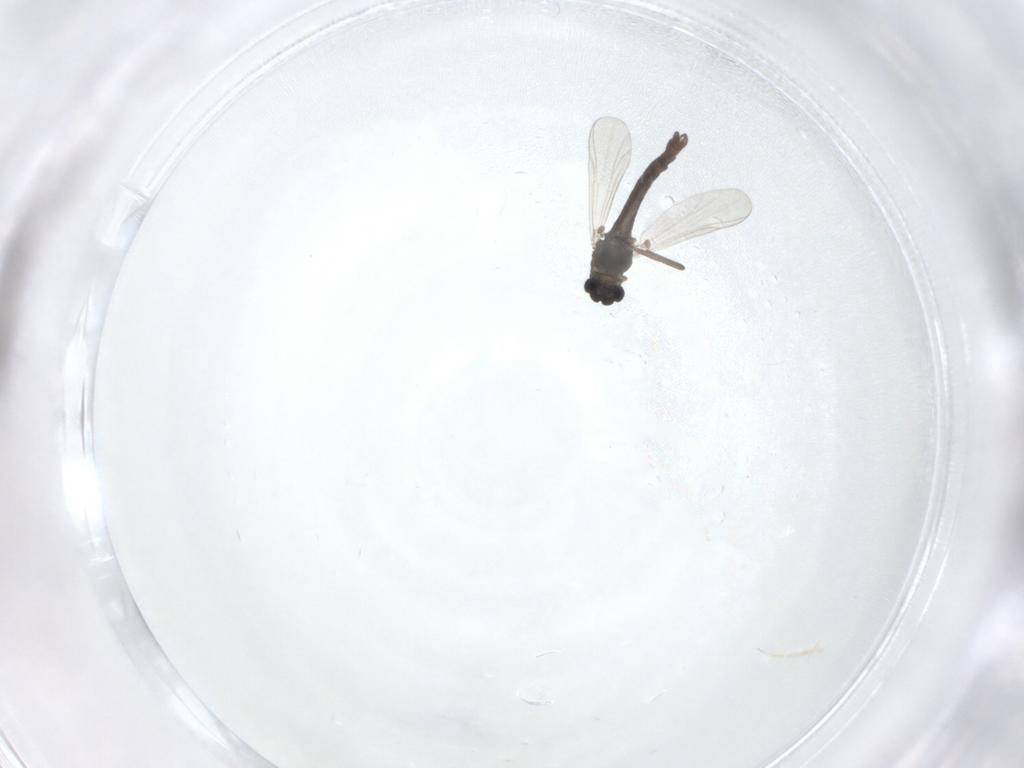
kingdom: Animalia
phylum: Arthropoda
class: Insecta
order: Diptera
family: Chironomidae
